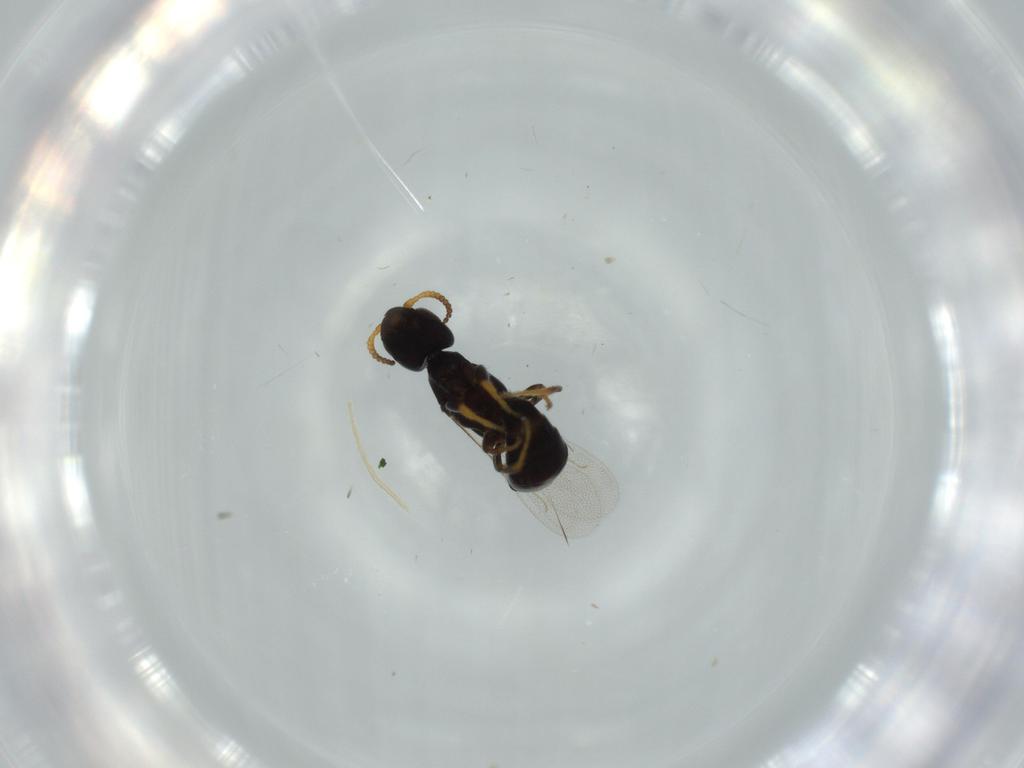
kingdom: Animalia
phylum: Arthropoda
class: Insecta
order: Hymenoptera
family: Bethylidae
